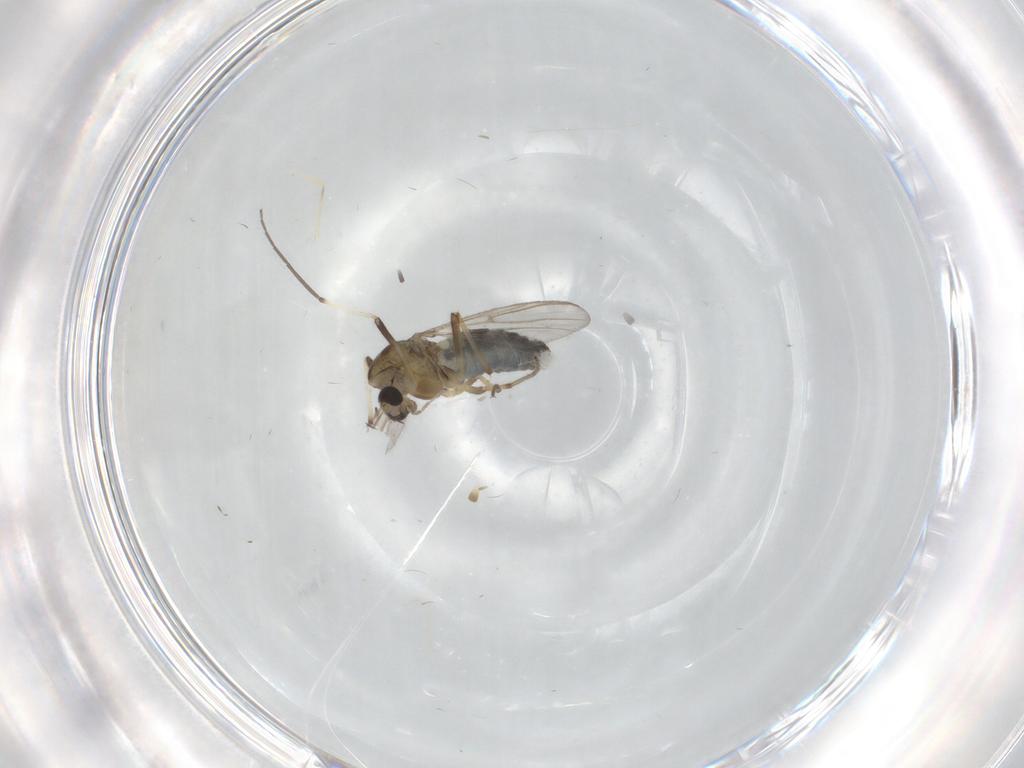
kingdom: Animalia
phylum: Arthropoda
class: Insecta
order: Diptera
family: Chironomidae
